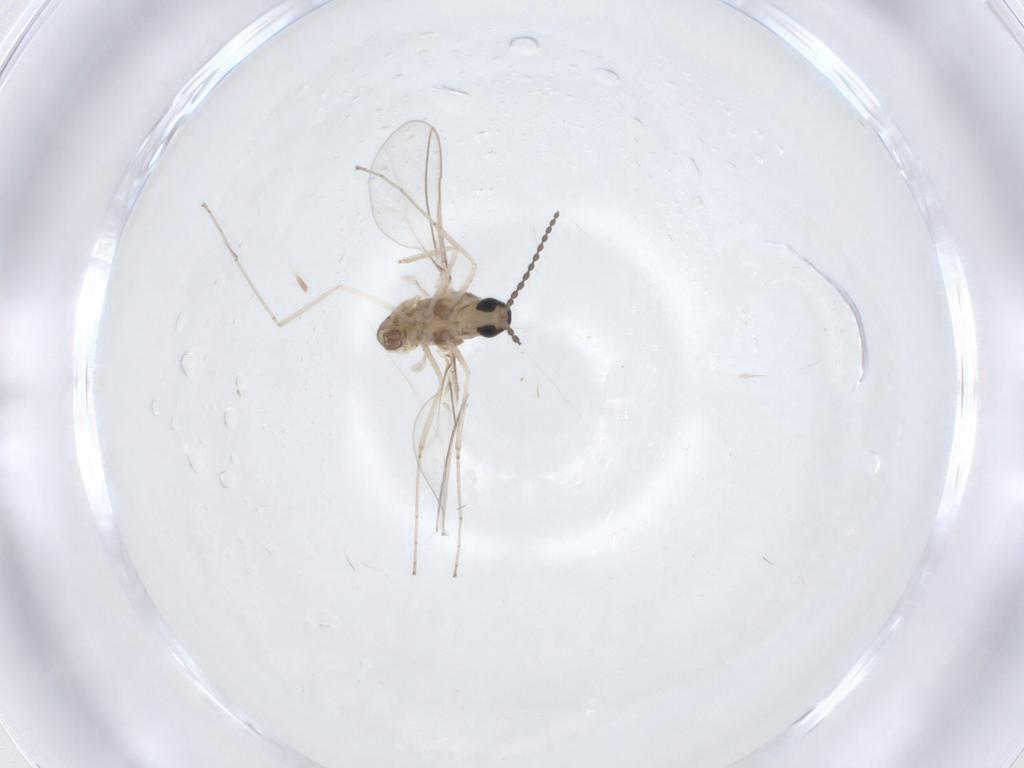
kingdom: Animalia
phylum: Arthropoda
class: Insecta
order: Diptera
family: Cecidomyiidae
